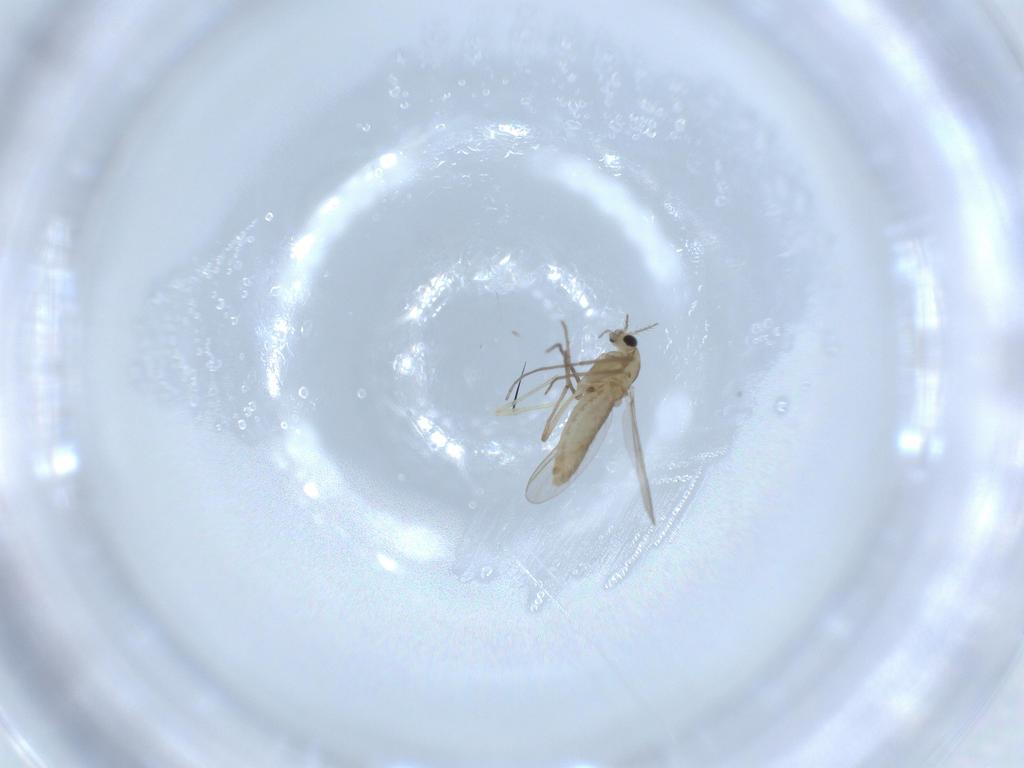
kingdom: Animalia
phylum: Arthropoda
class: Insecta
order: Diptera
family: Chironomidae
